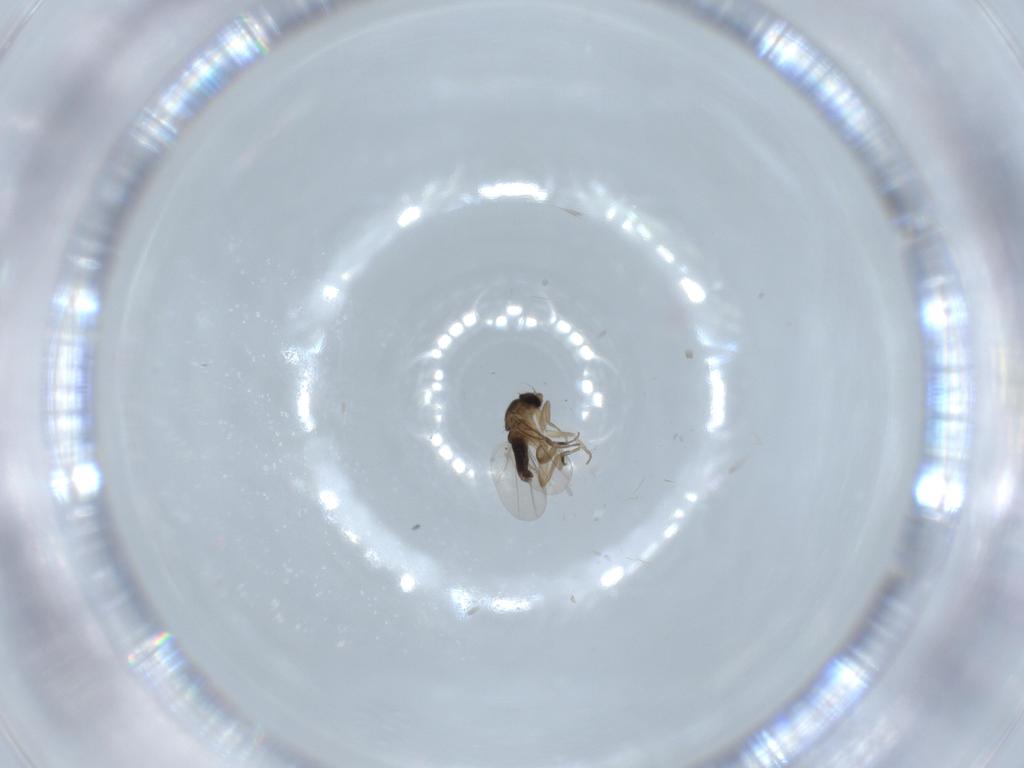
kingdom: Animalia
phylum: Arthropoda
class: Insecta
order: Diptera
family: Phoridae
